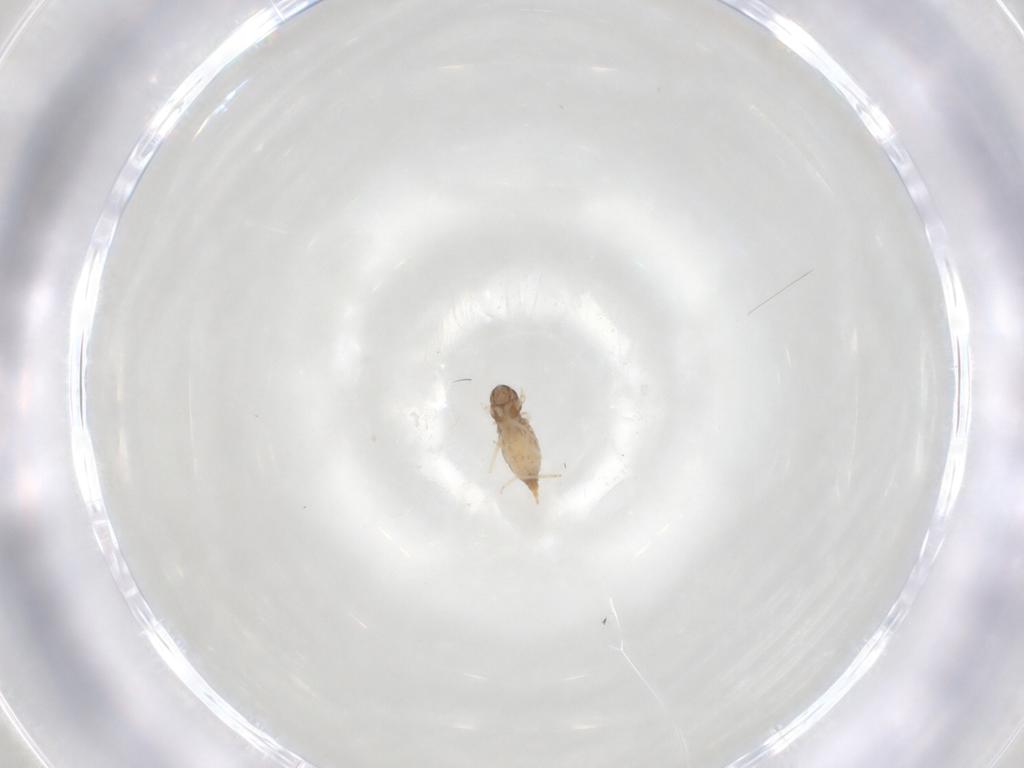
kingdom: Animalia
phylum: Arthropoda
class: Insecta
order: Diptera
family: Cecidomyiidae
